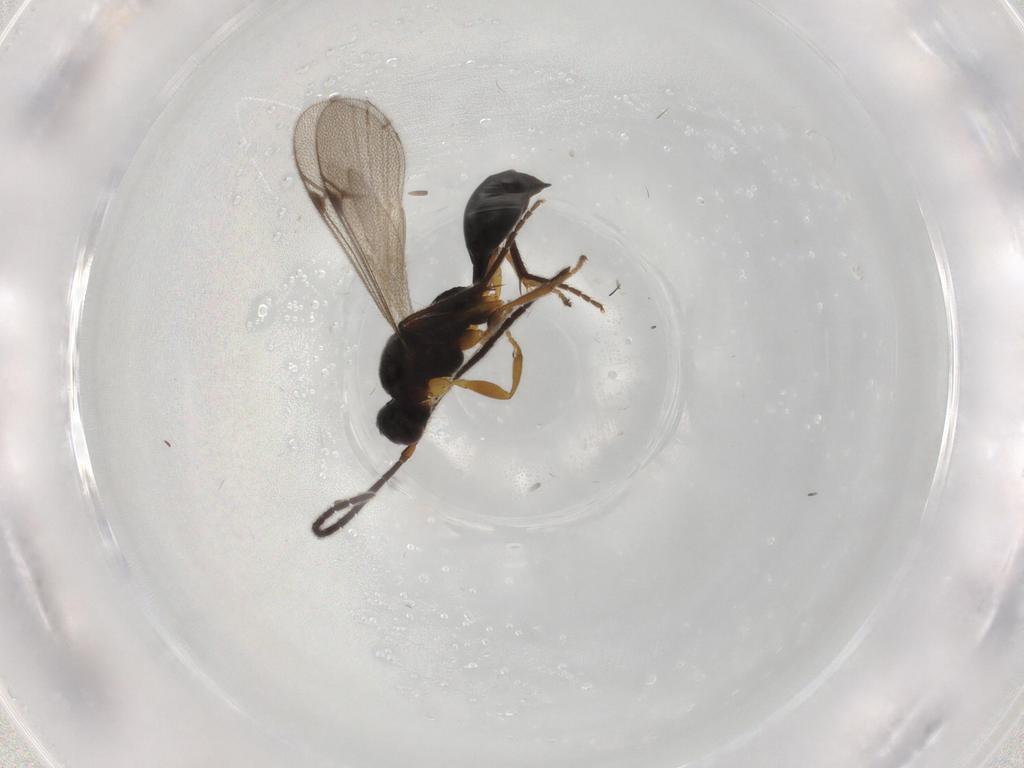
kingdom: Animalia
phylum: Arthropoda
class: Insecta
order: Hymenoptera
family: Proctotrupidae
